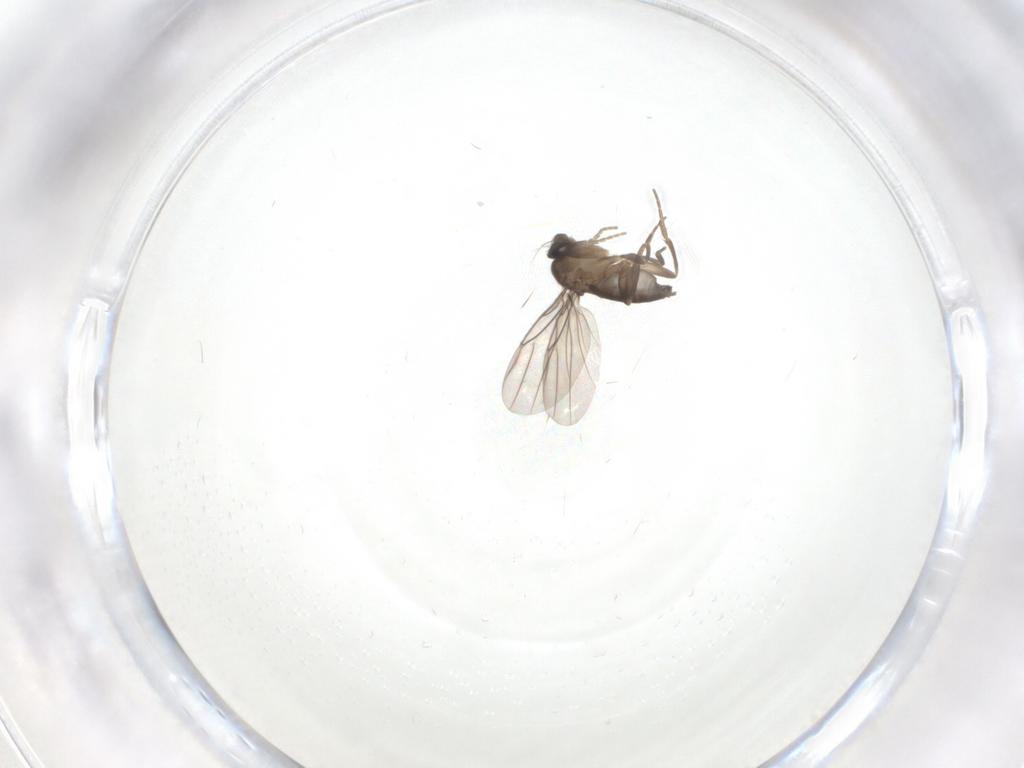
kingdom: Animalia
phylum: Arthropoda
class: Insecta
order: Diptera
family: Phoridae
